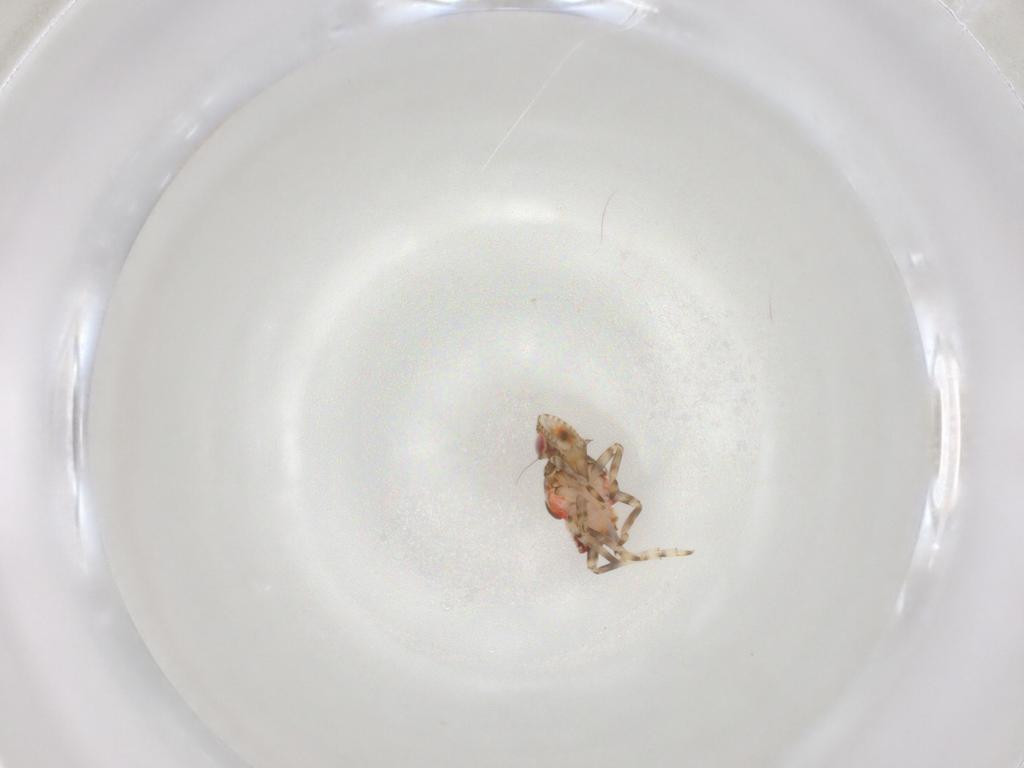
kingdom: Animalia
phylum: Arthropoda
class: Insecta
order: Hemiptera
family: Tropiduchidae
